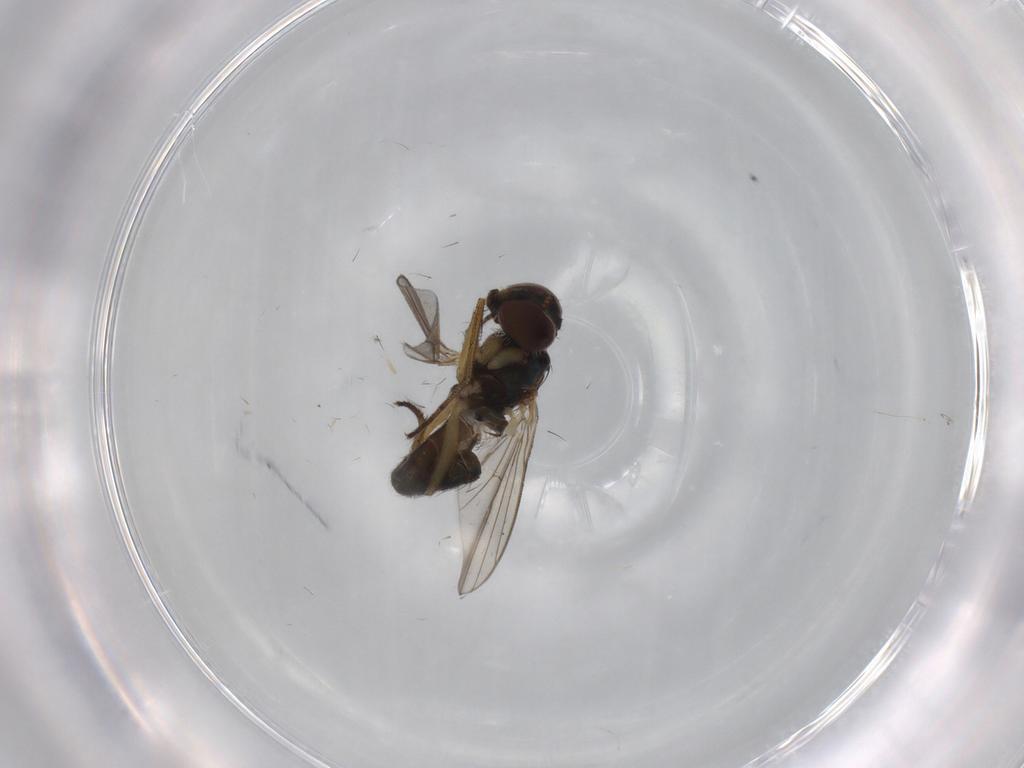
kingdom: Animalia
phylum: Arthropoda
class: Insecta
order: Diptera
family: Dolichopodidae
